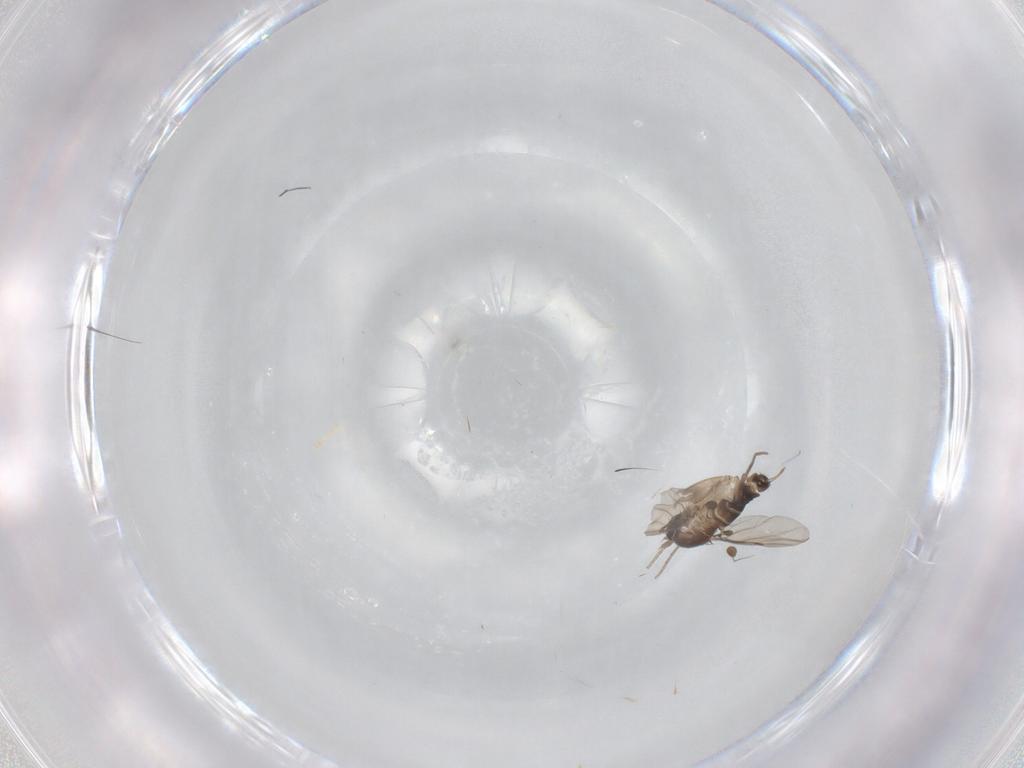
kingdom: Animalia
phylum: Arthropoda
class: Insecta
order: Diptera
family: Phoridae
